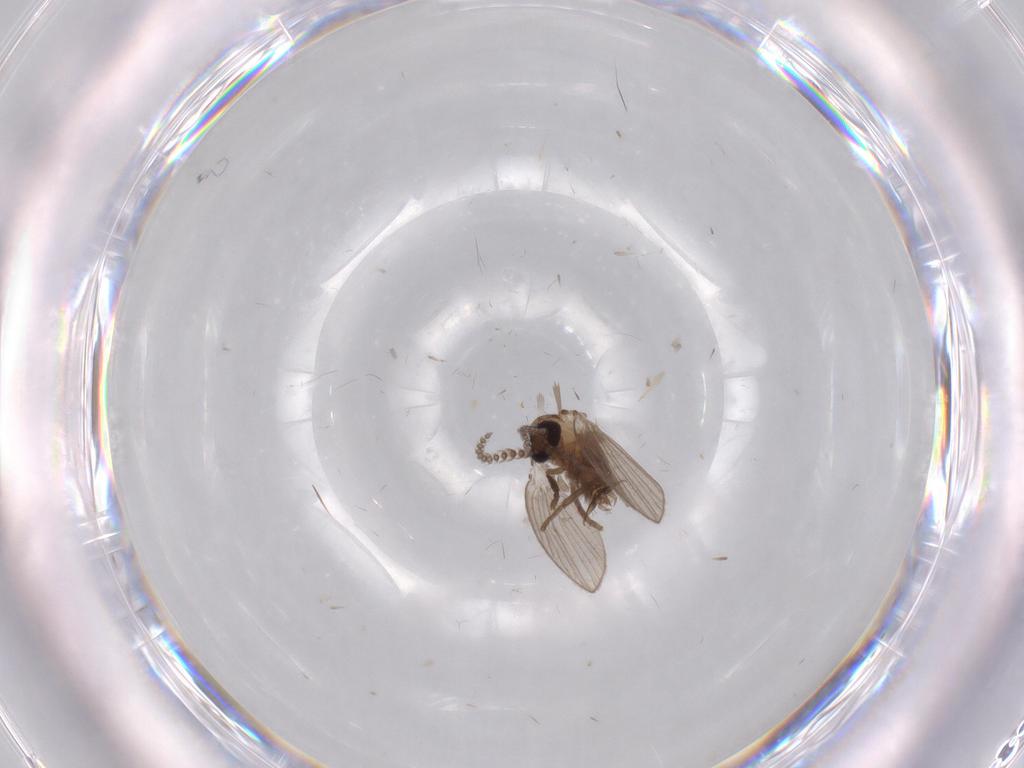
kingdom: Animalia
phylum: Arthropoda
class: Insecta
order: Diptera
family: Psychodidae
